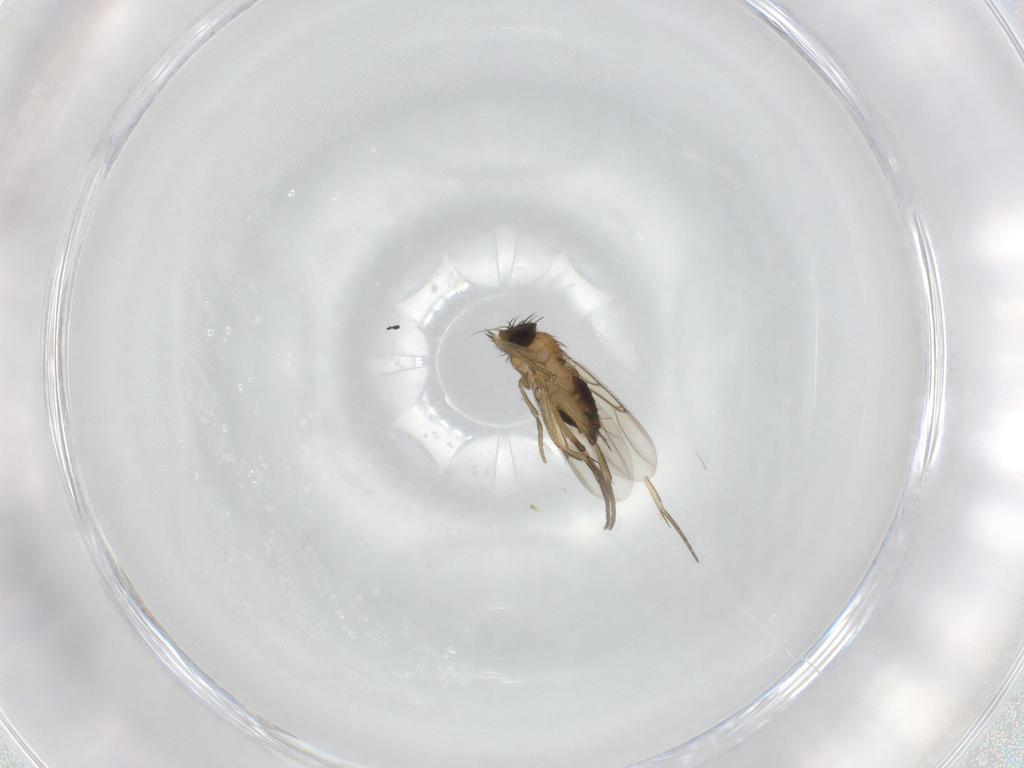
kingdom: Animalia
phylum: Arthropoda
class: Insecta
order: Diptera
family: Phoridae
